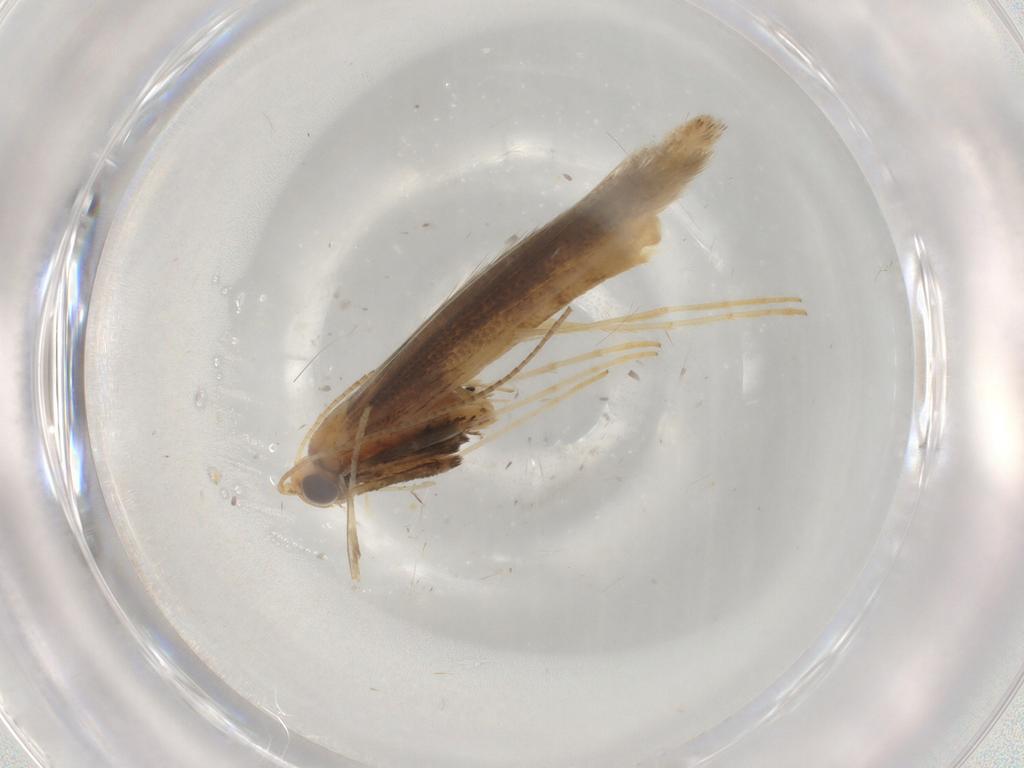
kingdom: Animalia
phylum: Arthropoda
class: Insecta
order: Lepidoptera
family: Gracillariidae
